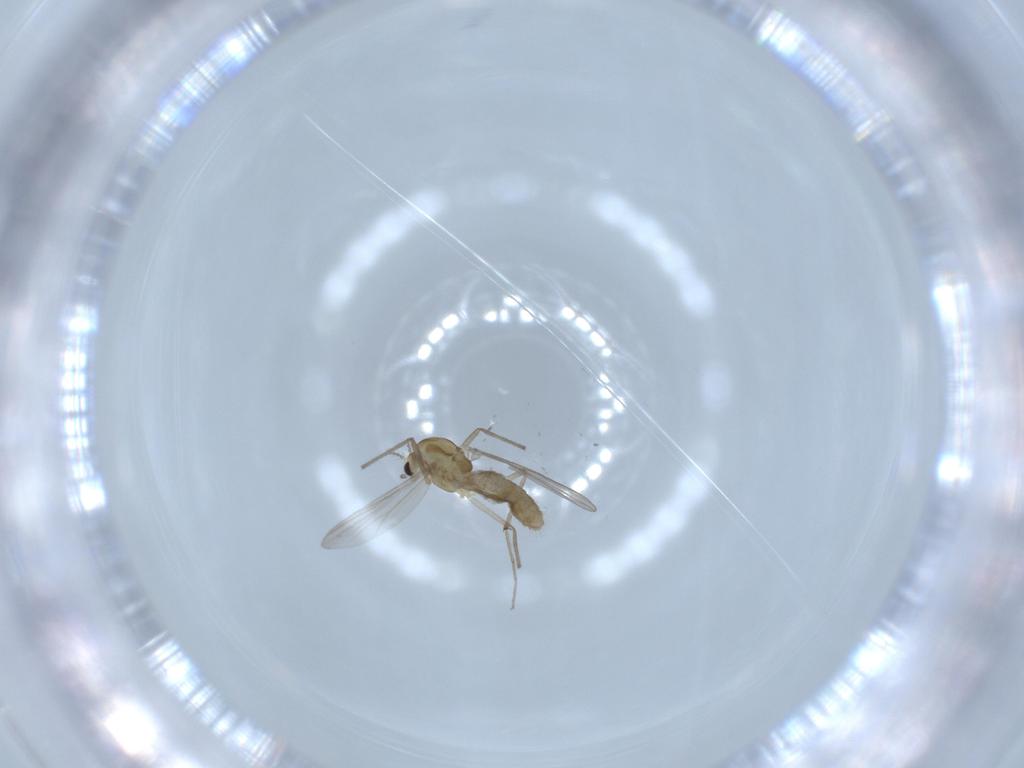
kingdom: Animalia
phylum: Arthropoda
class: Insecta
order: Diptera
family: Chironomidae
